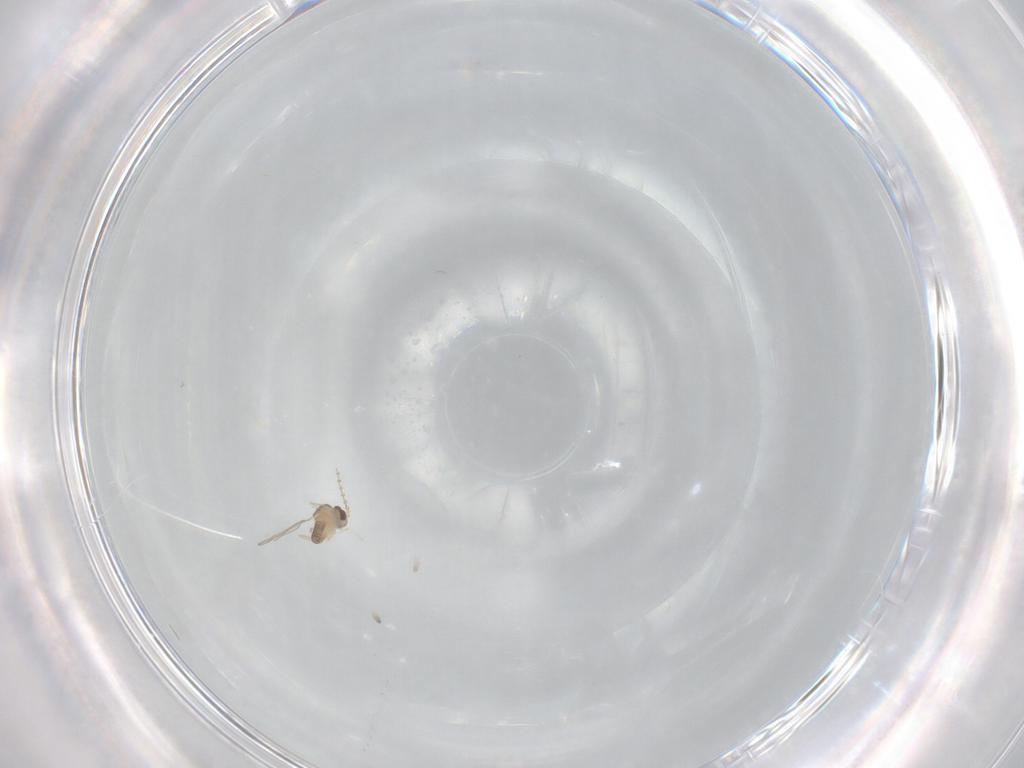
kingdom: Animalia
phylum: Arthropoda
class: Insecta
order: Diptera
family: Cecidomyiidae
